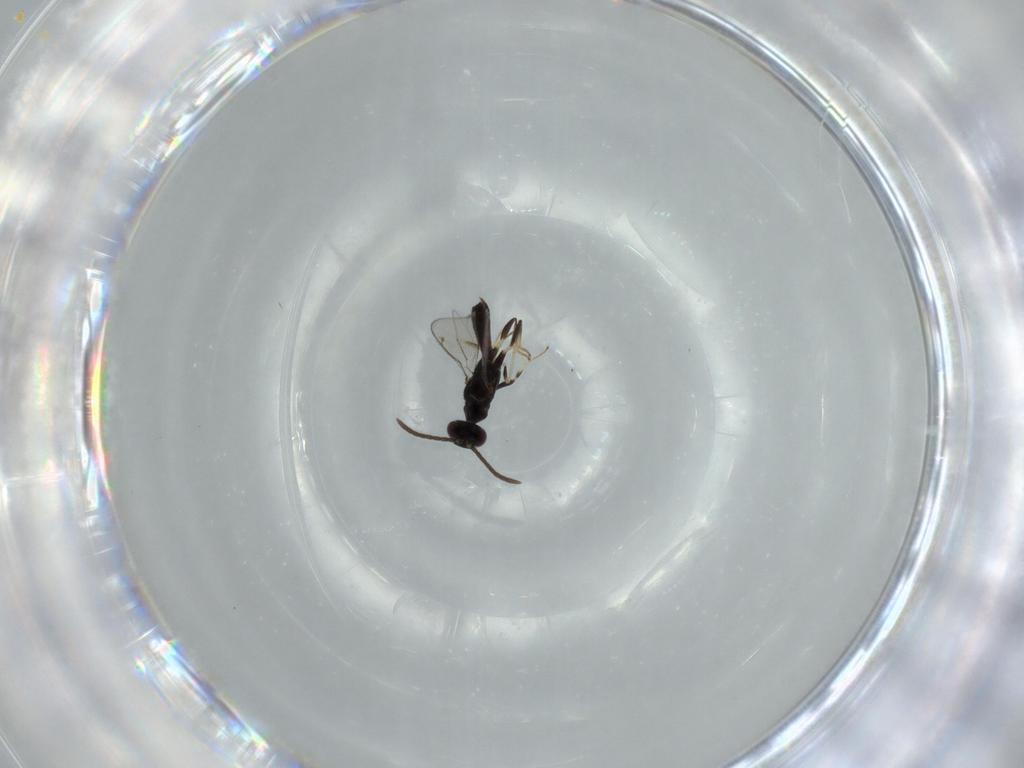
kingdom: Animalia
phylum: Arthropoda
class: Insecta
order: Hymenoptera
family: Eupelmidae
